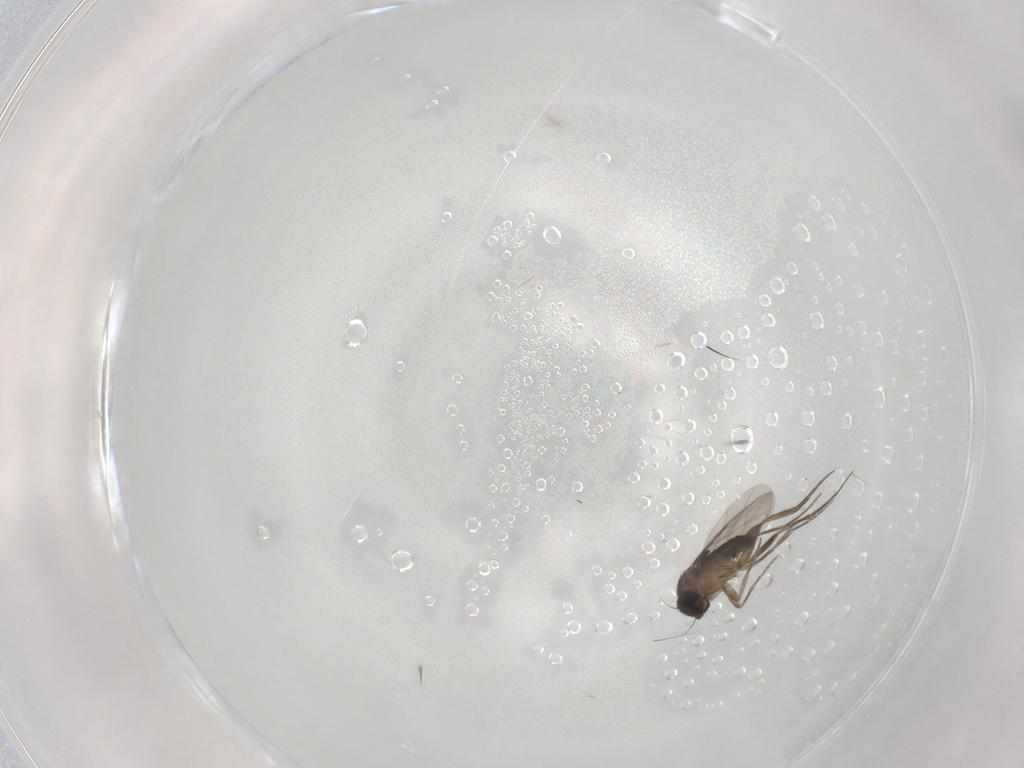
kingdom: Animalia
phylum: Arthropoda
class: Insecta
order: Diptera
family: Phoridae
